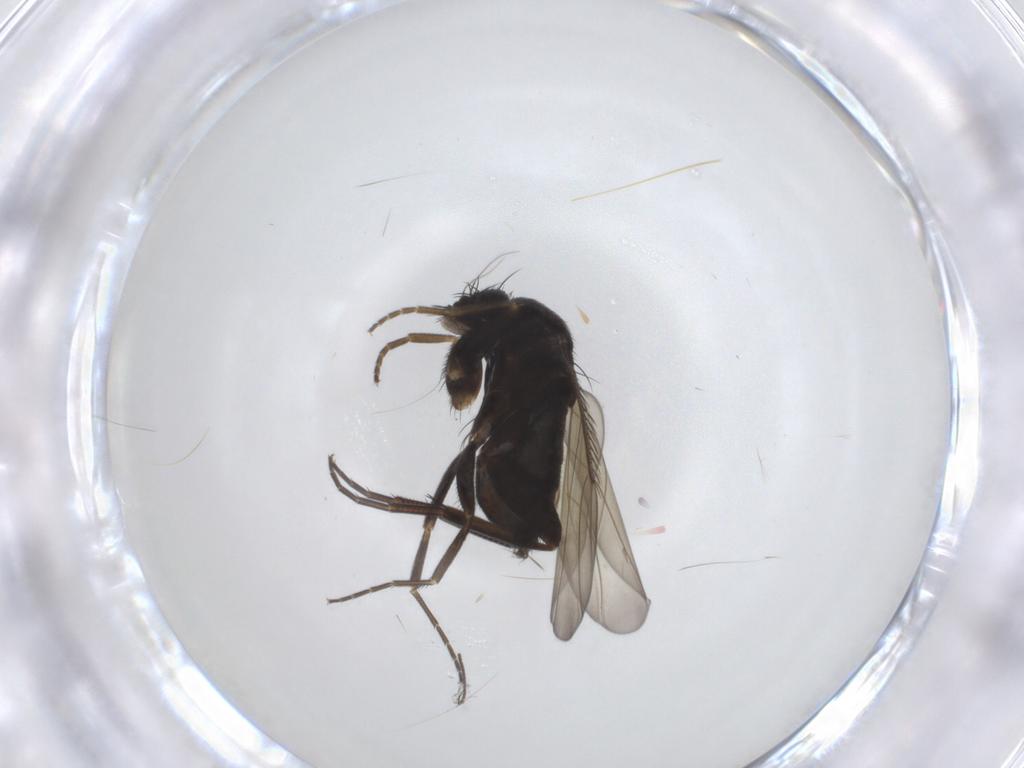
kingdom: Animalia
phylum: Arthropoda
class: Insecta
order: Diptera
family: Phoridae
